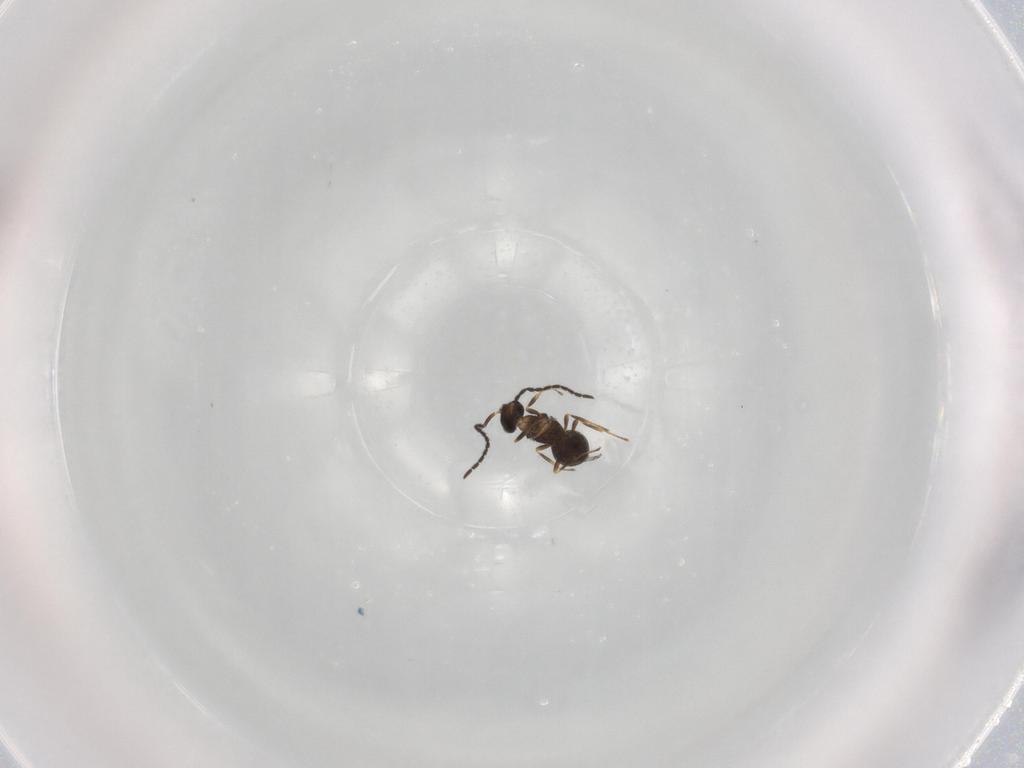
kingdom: Animalia
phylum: Arthropoda
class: Insecta
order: Hymenoptera
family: Scelionidae
